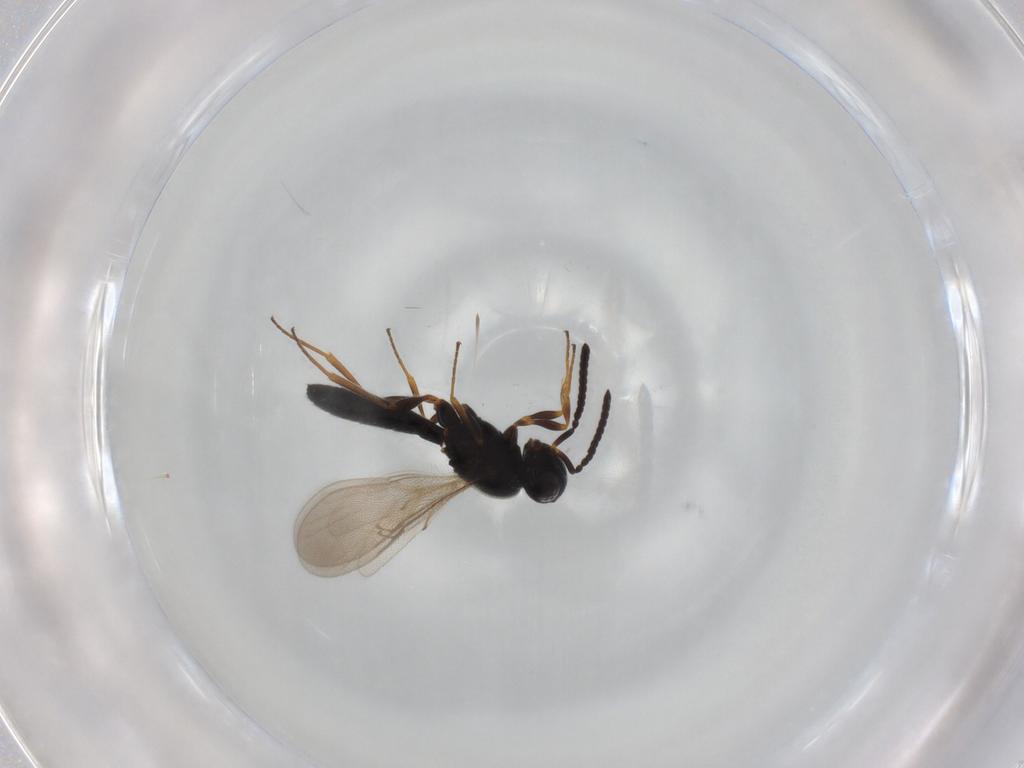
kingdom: Animalia
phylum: Arthropoda
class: Insecta
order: Hymenoptera
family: Scelionidae
